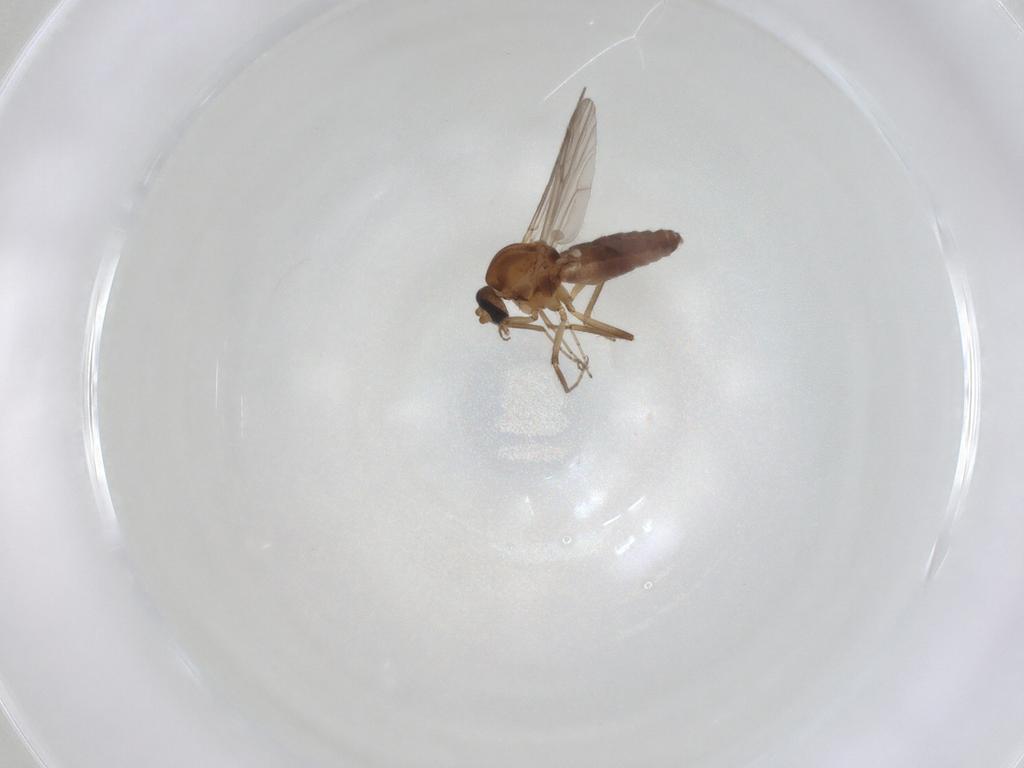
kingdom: Animalia
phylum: Arthropoda
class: Insecta
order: Diptera
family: Ceratopogonidae
